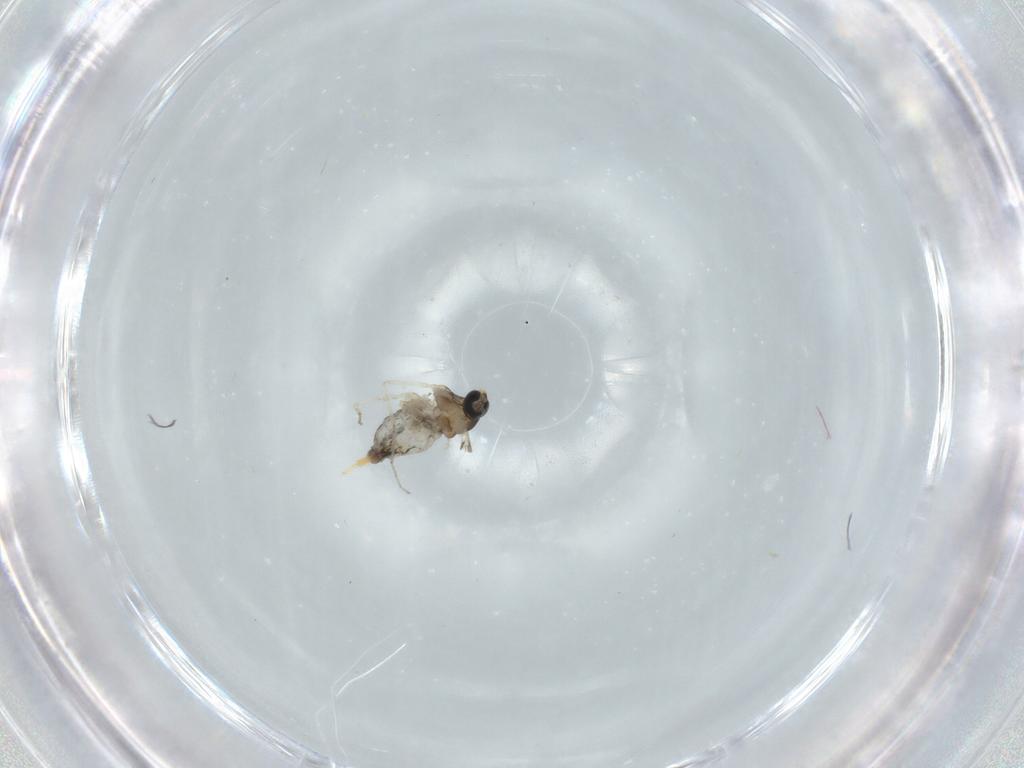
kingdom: Animalia
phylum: Arthropoda
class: Insecta
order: Diptera
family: Cecidomyiidae
